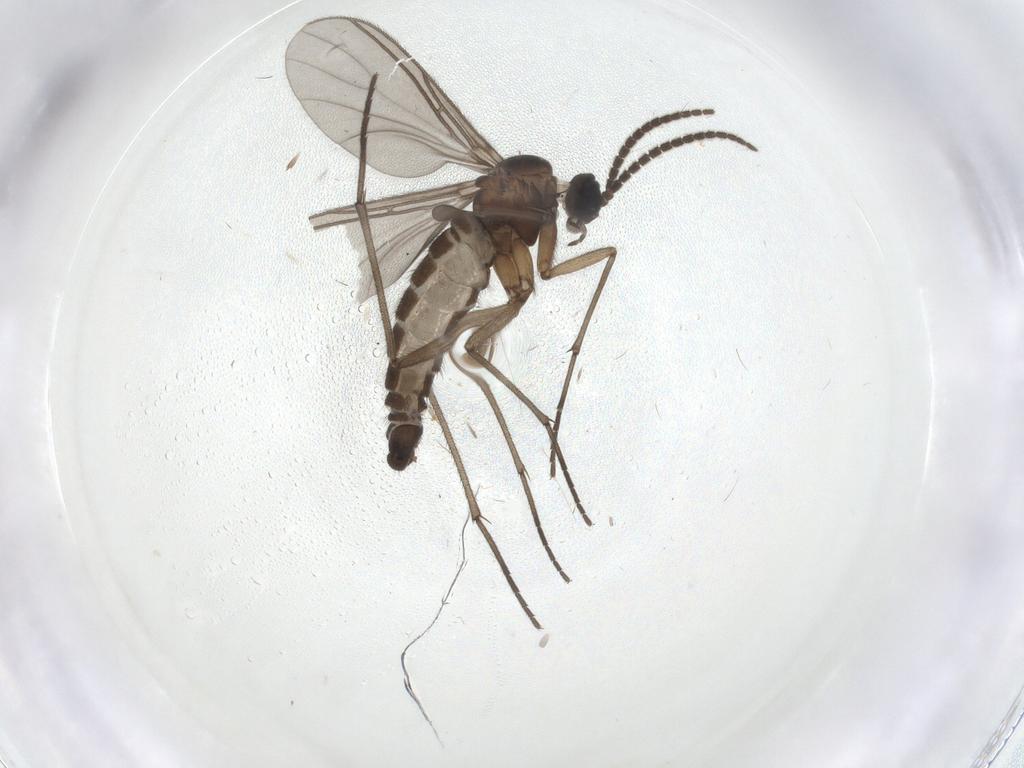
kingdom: Animalia
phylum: Arthropoda
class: Insecta
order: Diptera
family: Sciaridae
